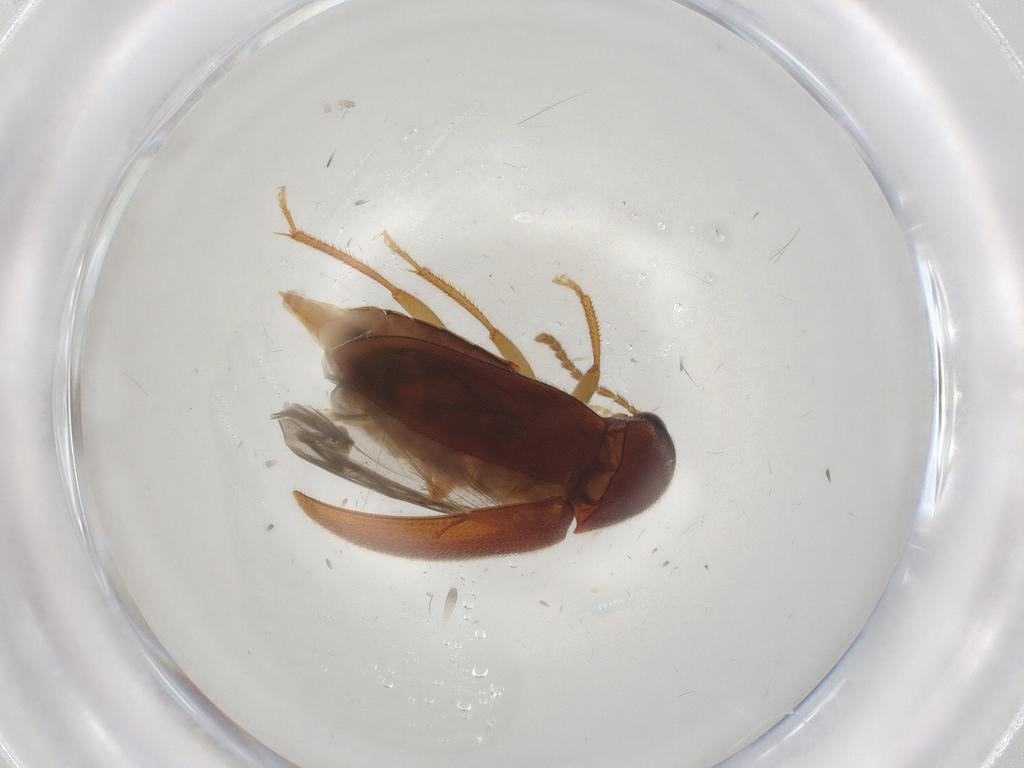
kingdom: Animalia
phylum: Arthropoda
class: Insecta
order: Coleoptera
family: Ptilodactylidae
